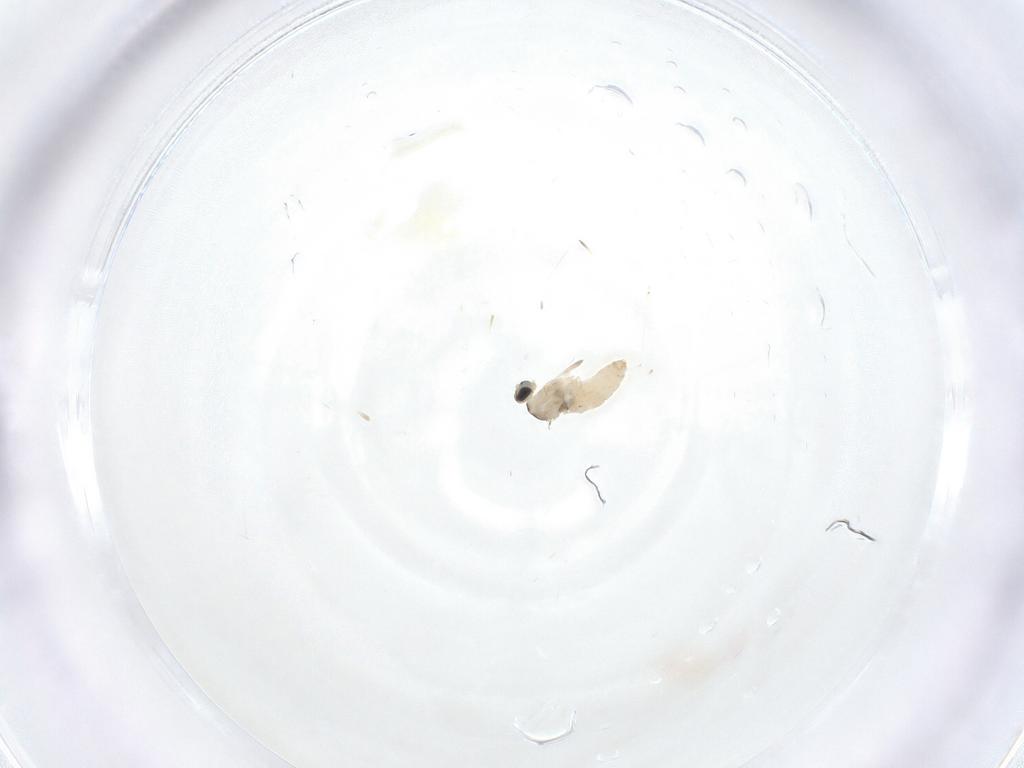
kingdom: Animalia
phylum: Arthropoda
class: Insecta
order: Diptera
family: Cecidomyiidae
